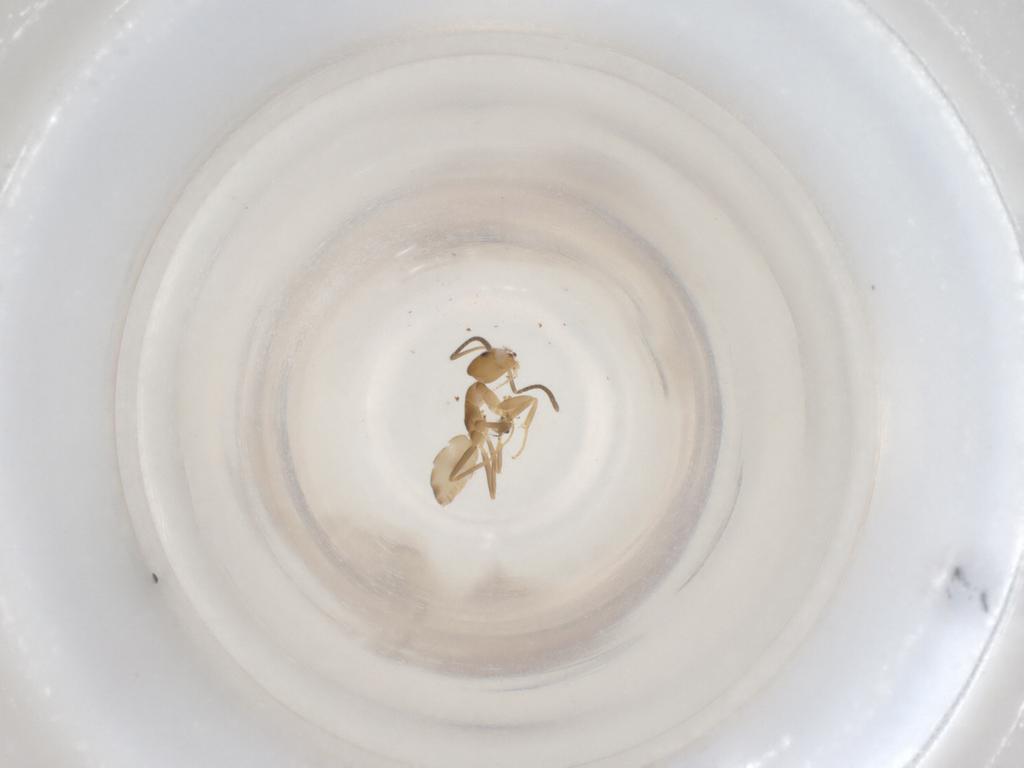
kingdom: Animalia
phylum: Arthropoda
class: Insecta
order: Hymenoptera
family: Formicidae
